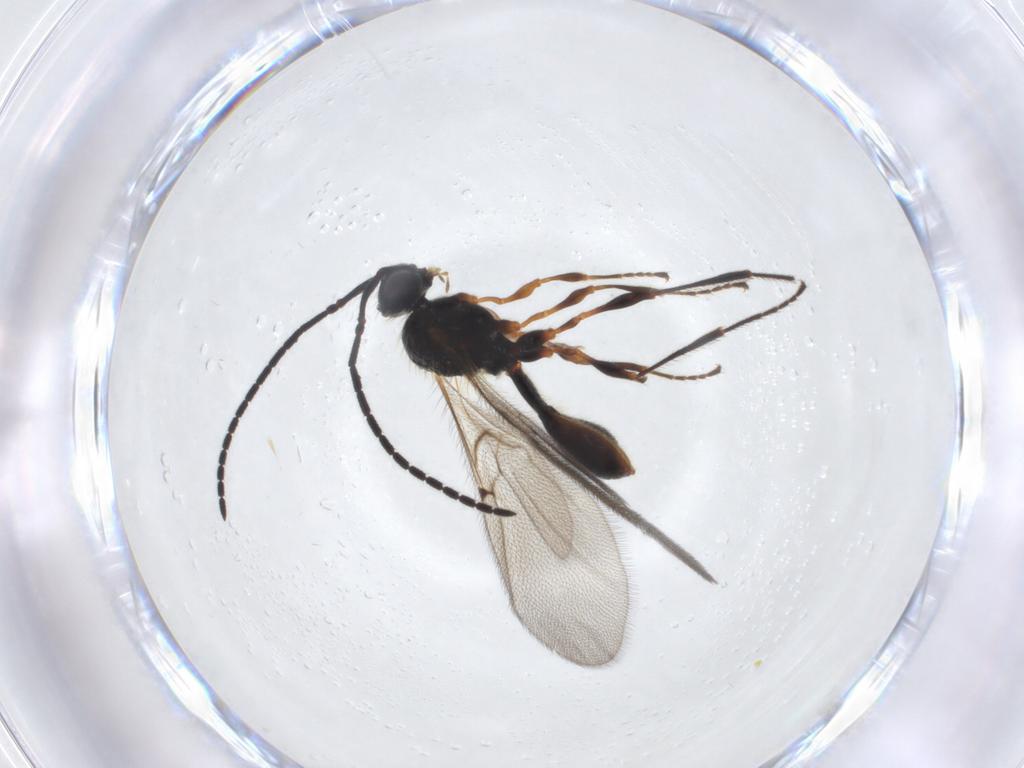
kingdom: Animalia
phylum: Arthropoda
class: Insecta
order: Hymenoptera
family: Diapriidae
